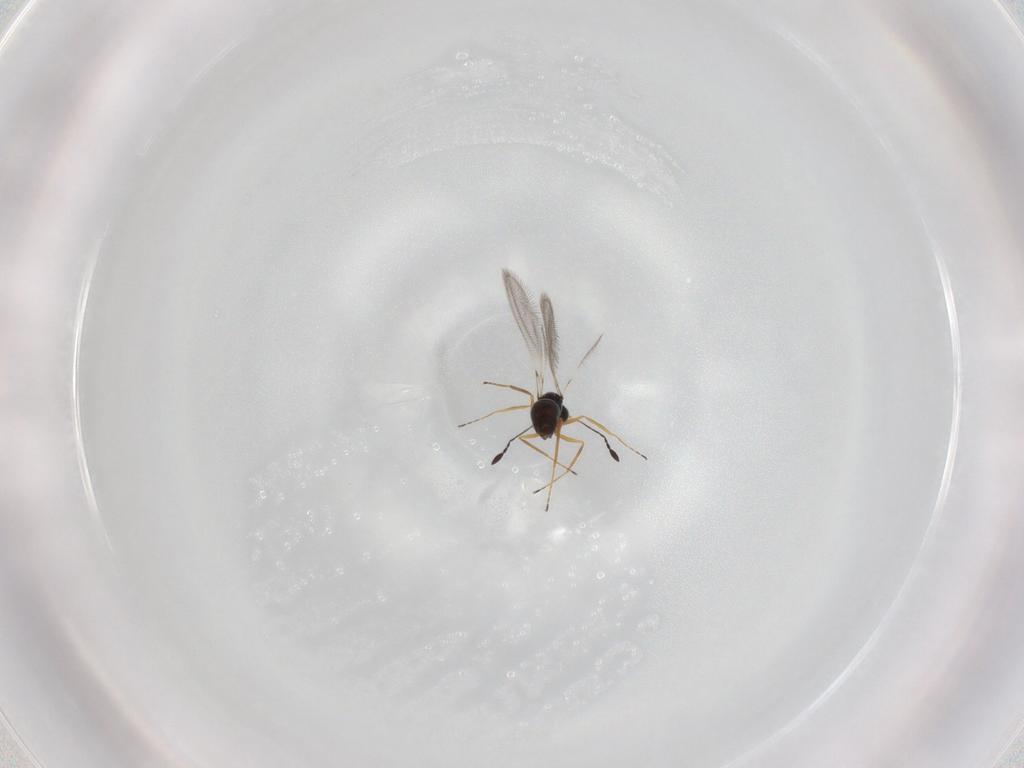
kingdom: Animalia
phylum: Arthropoda
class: Insecta
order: Hymenoptera
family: Mymaridae
